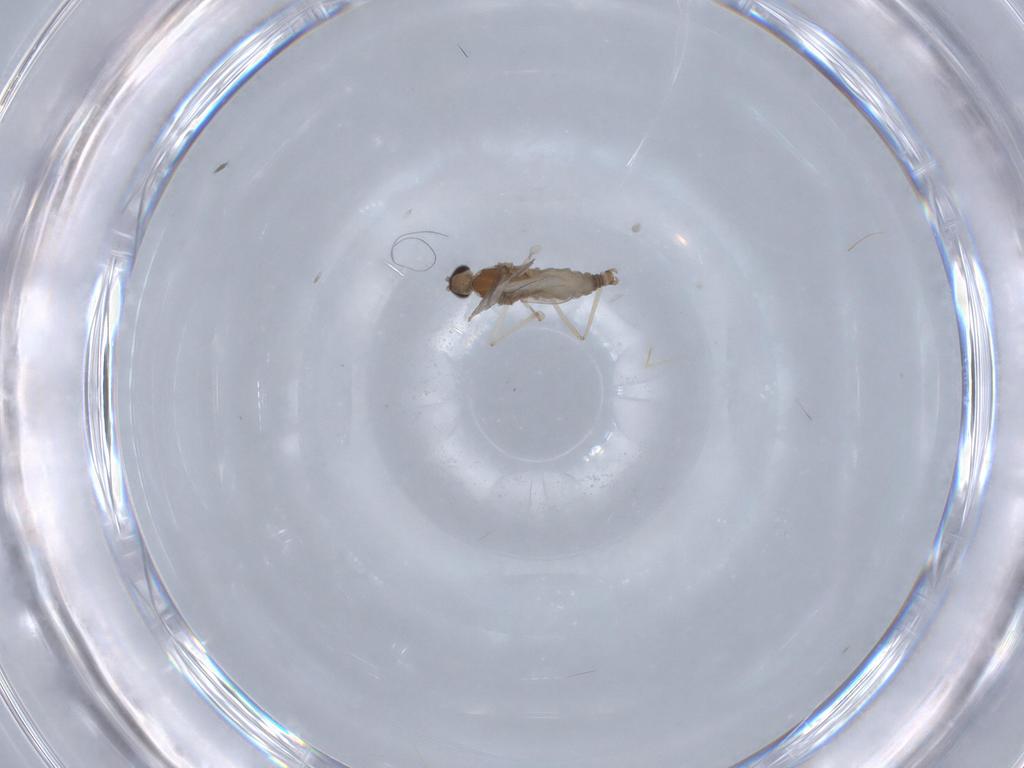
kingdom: Animalia
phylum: Arthropoda
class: Insecta
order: Diptera
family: Cecidomyiidae
